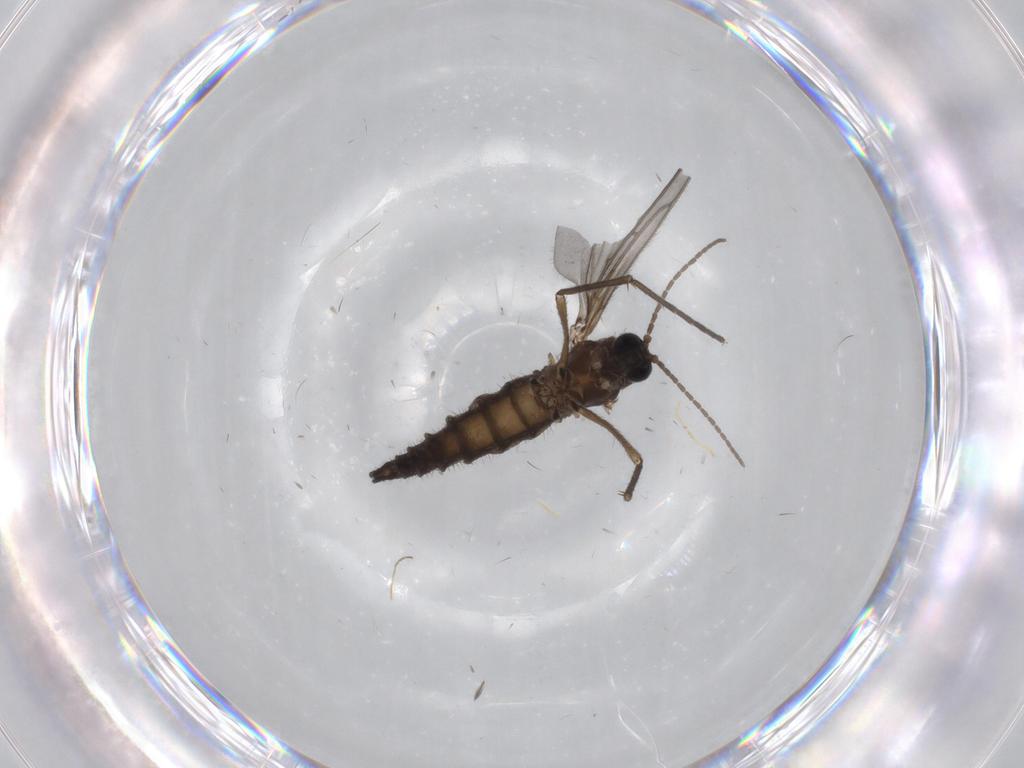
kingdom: Animalia
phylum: Arthropoda
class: Insecta
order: Diptera
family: Sciaridae
